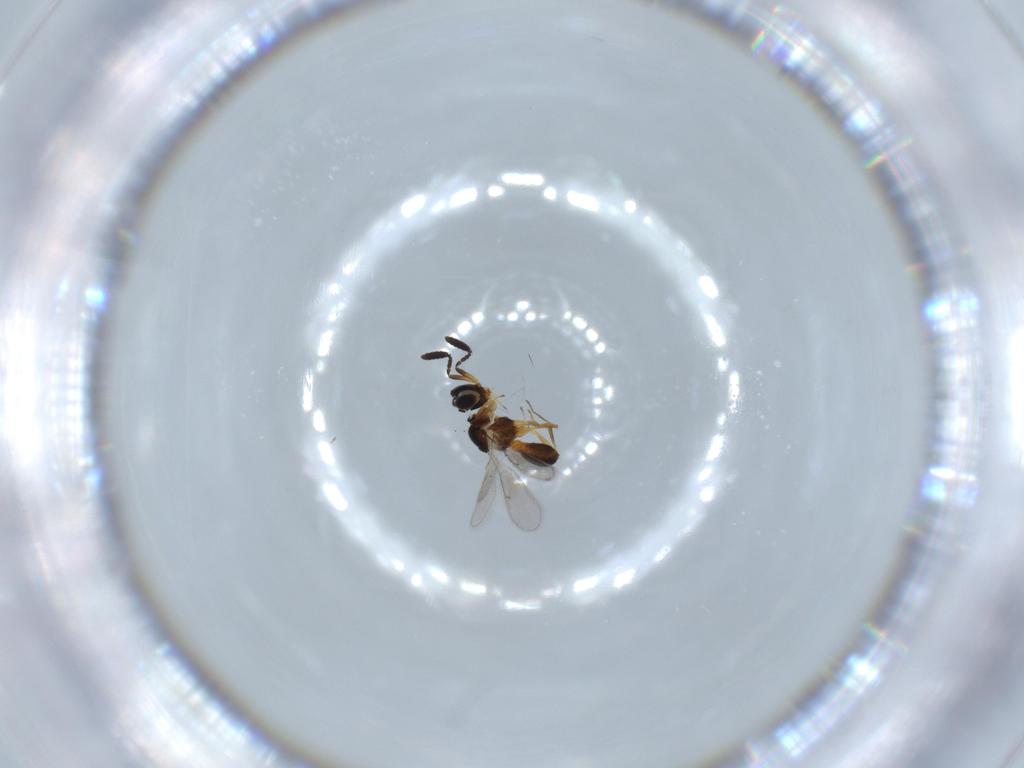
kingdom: Animalia
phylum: Arthropoda
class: Insecta
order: Hymenoptera
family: Scelionidae
